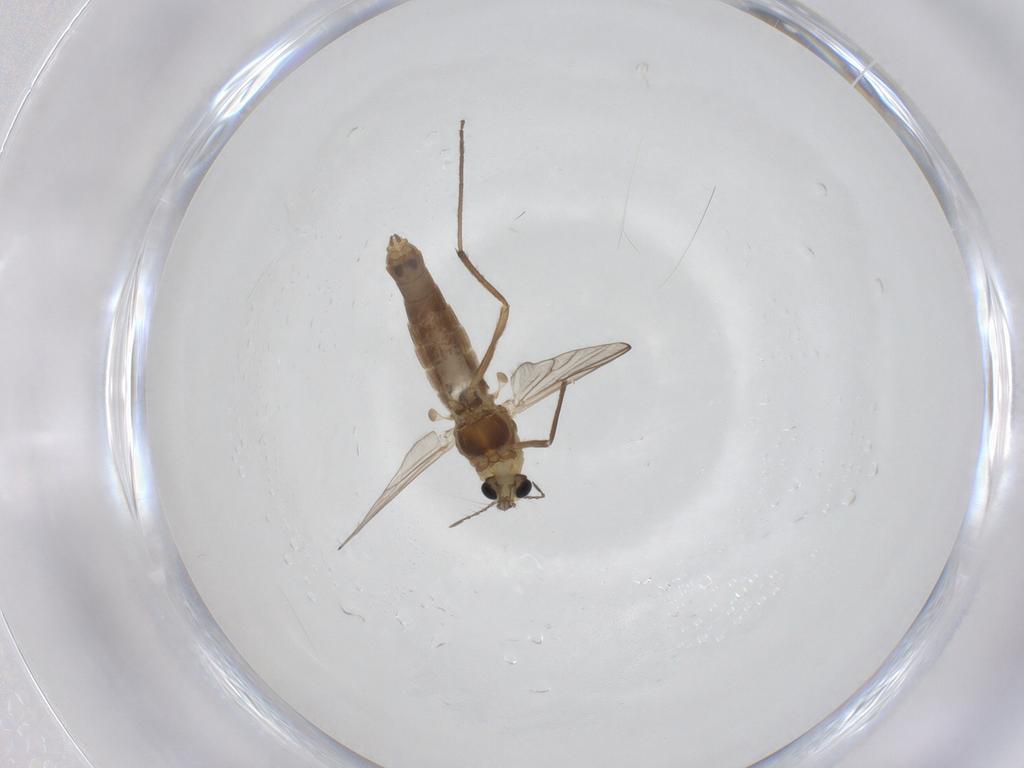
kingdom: Animalia
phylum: Arthropoda
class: Insecta
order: Diptera
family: Chironomidae
